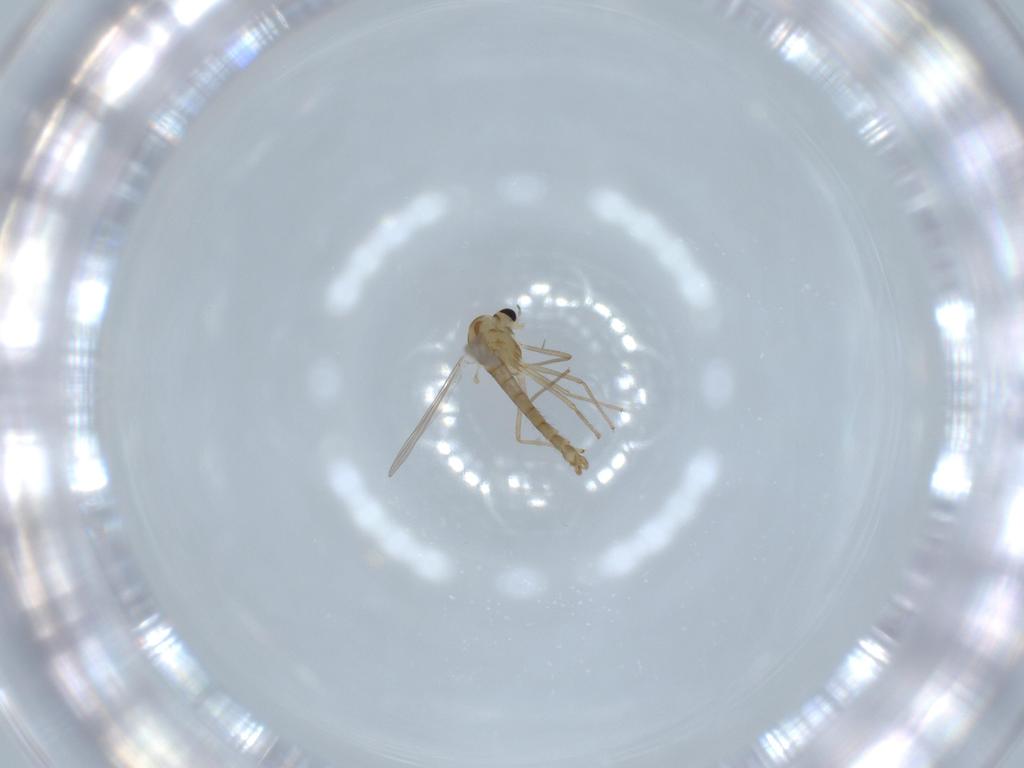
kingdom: Animalia
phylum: Arthropoda
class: Insecta
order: Diptera
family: Chironomidae
